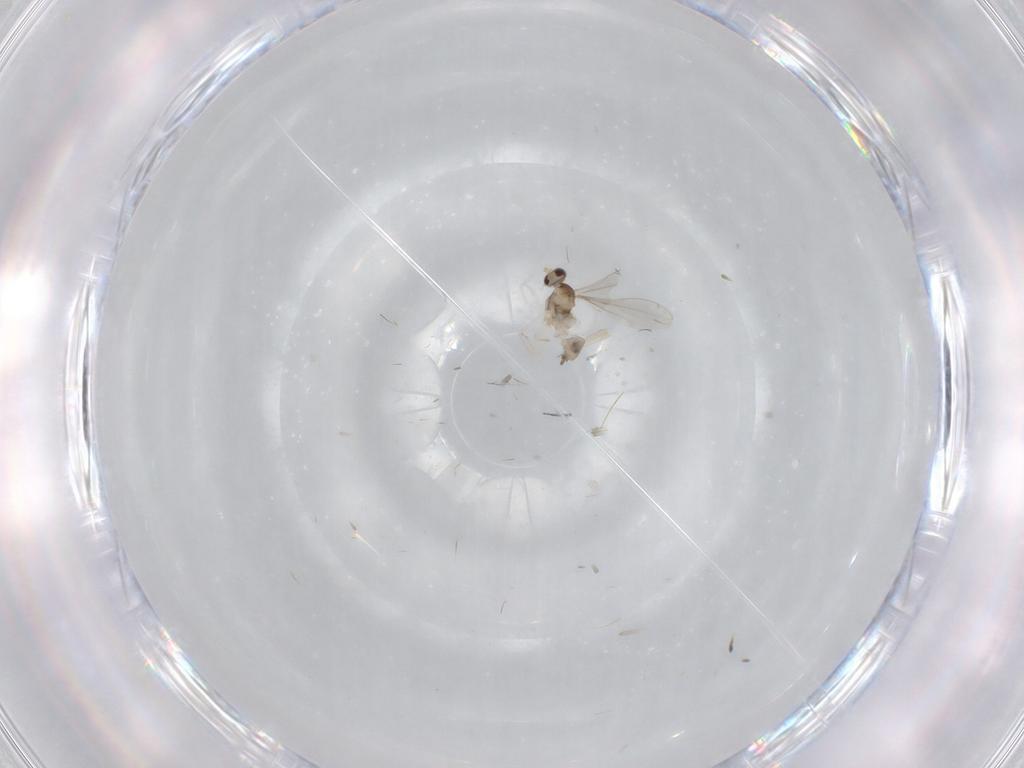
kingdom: Animalia
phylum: Arthropoda
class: Insecta
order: Diptera
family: Cecidomyiidae
